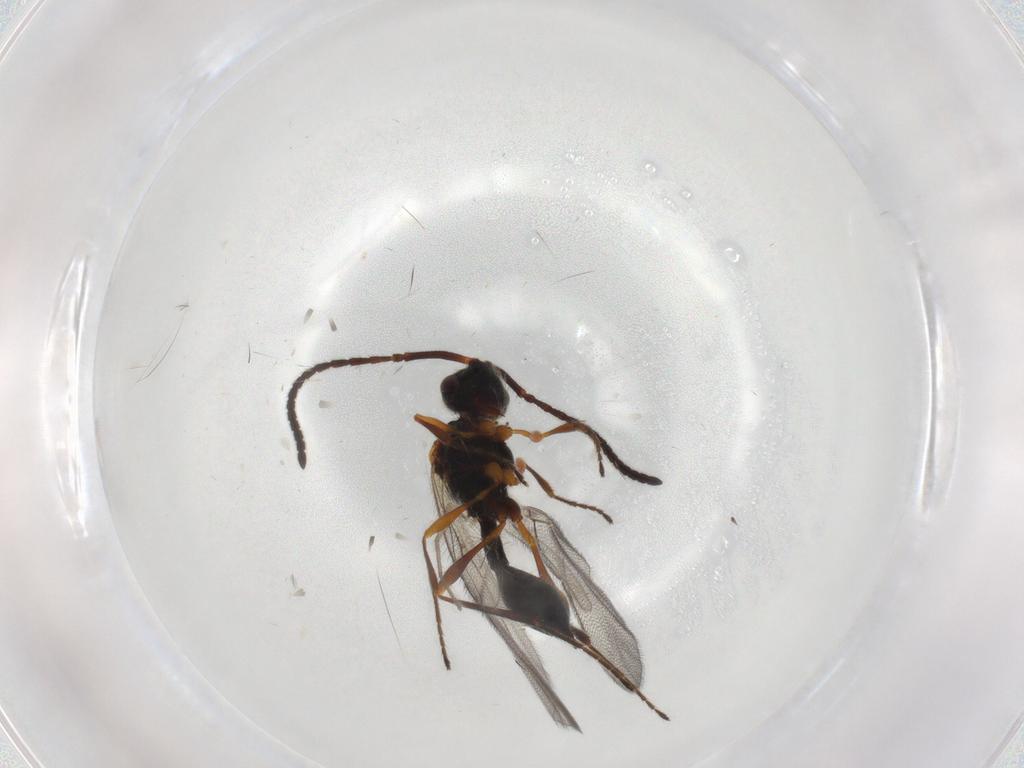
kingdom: Animalia
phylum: Arthropoda
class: Insecta
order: Hymenoptera
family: Diapriidae
